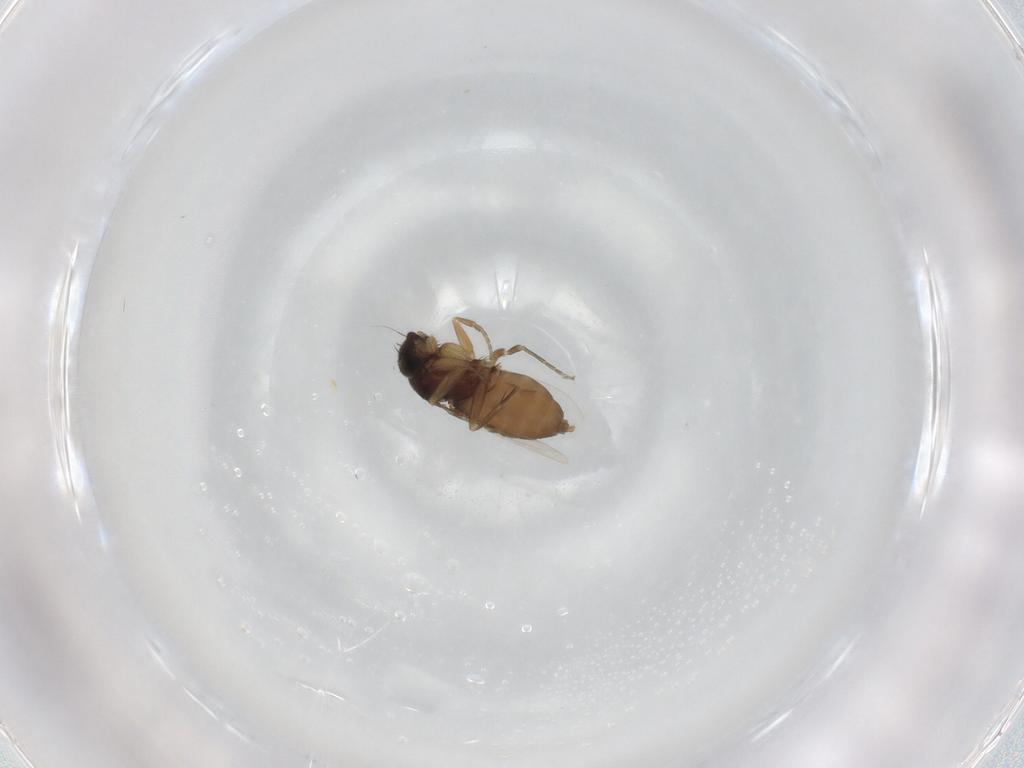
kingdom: Animalia
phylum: Arthropoda
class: Insecta
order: Diptera
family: Phoridae
